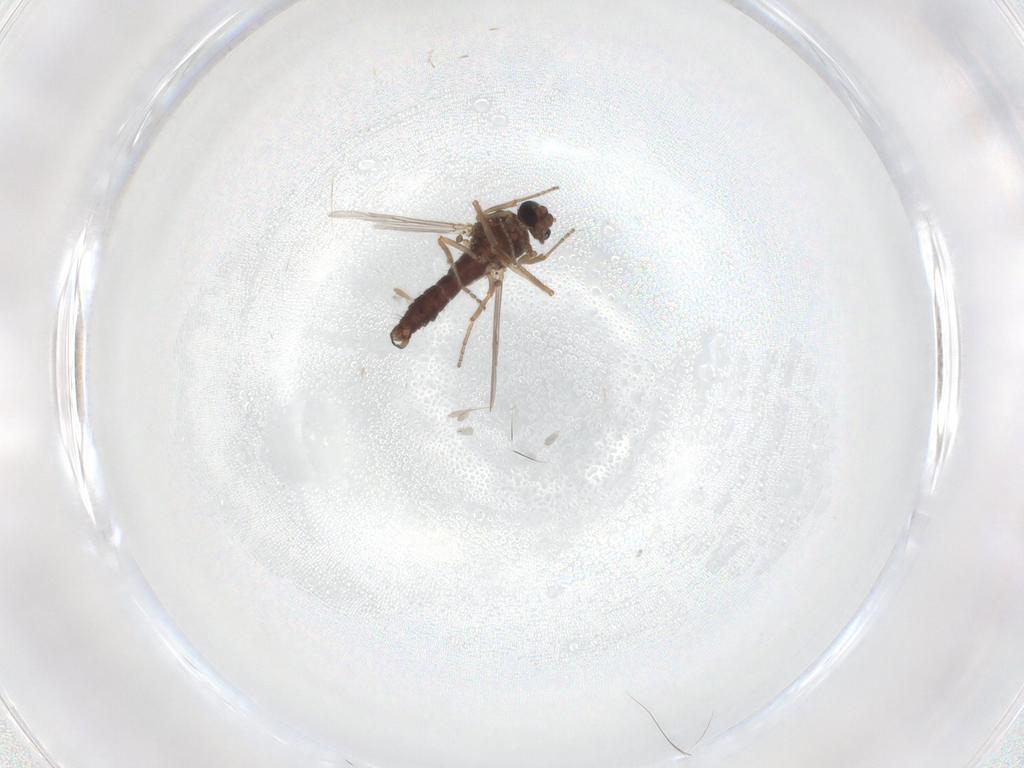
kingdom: Animalia
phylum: Arthropoda
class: Insecta
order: Diptera
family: Ceratopogonidae
